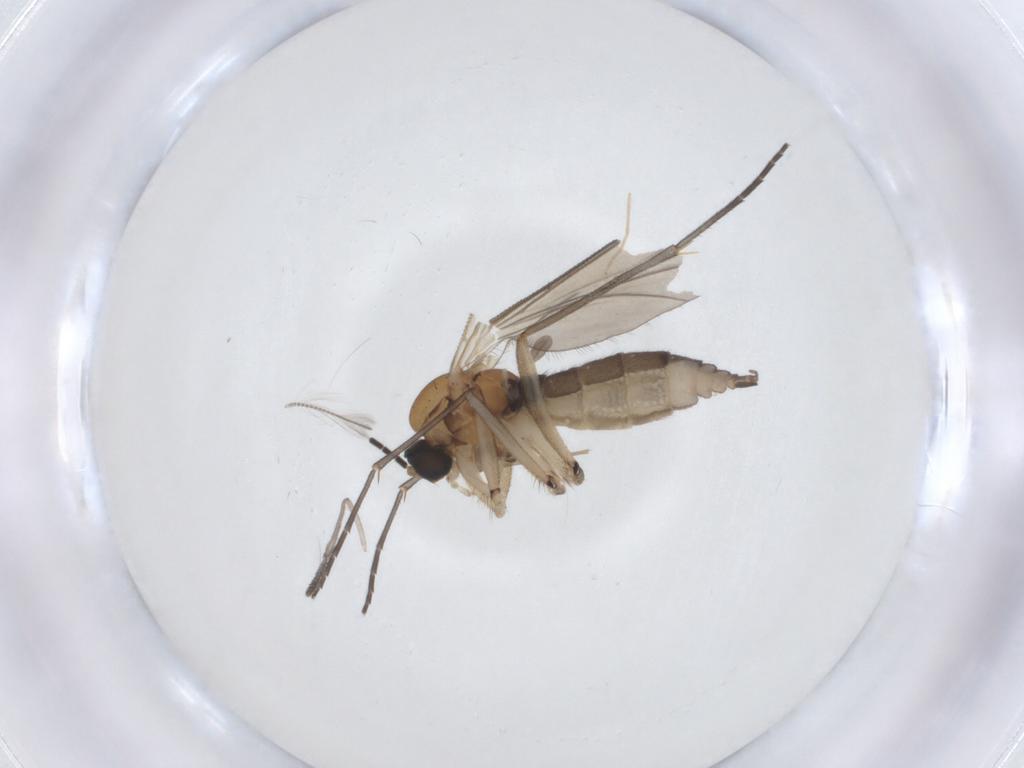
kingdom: Animalia
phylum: Arthropoda
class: Insecta
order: Diptera
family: Sciaridae
